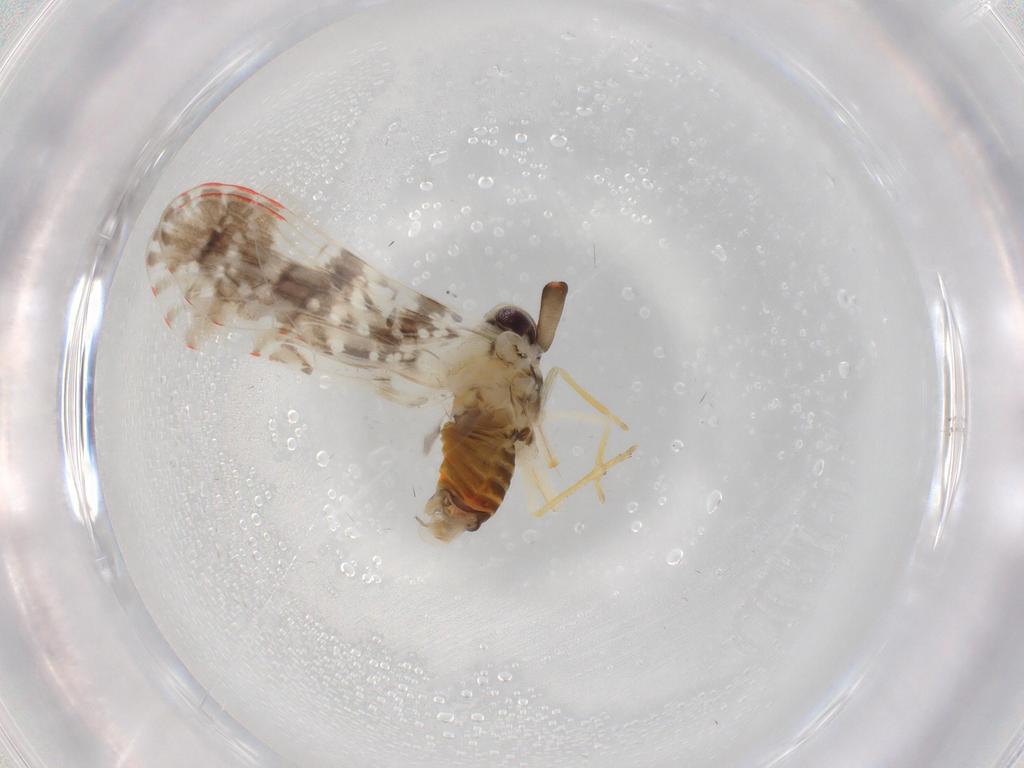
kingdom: Animalia
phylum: Arthropoda
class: Insecta
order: Hemiptera
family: Derbidae
